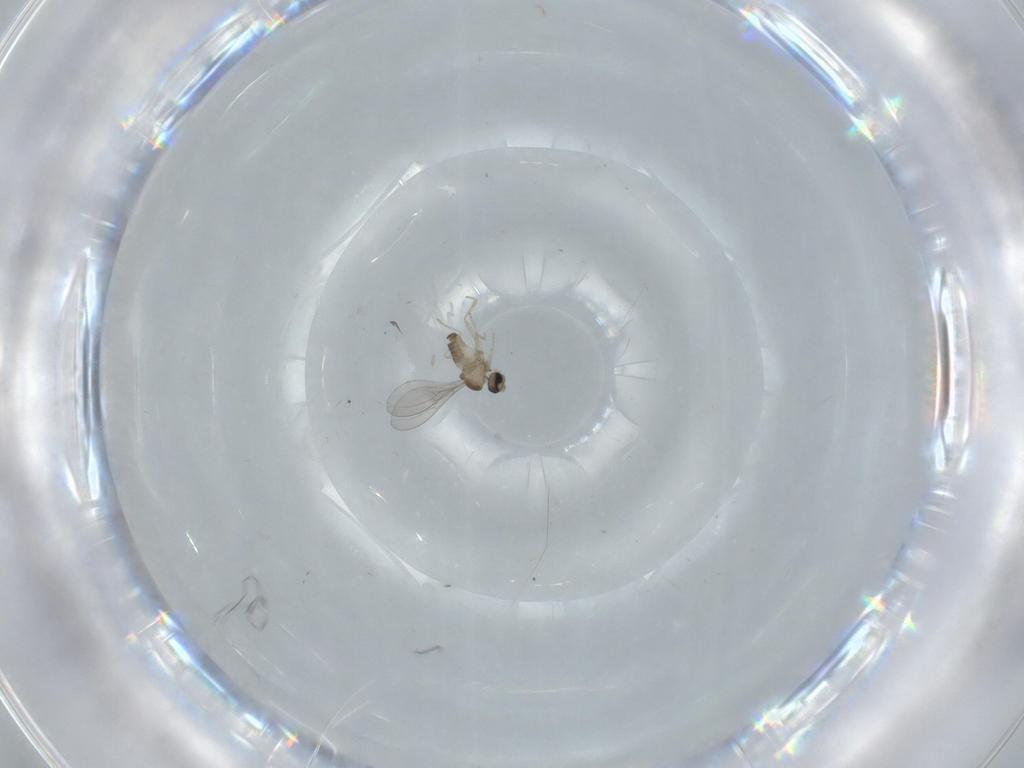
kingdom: Animalia
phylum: Arthropoda
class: Insecta
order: Diptera
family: Cecidomyiidae
